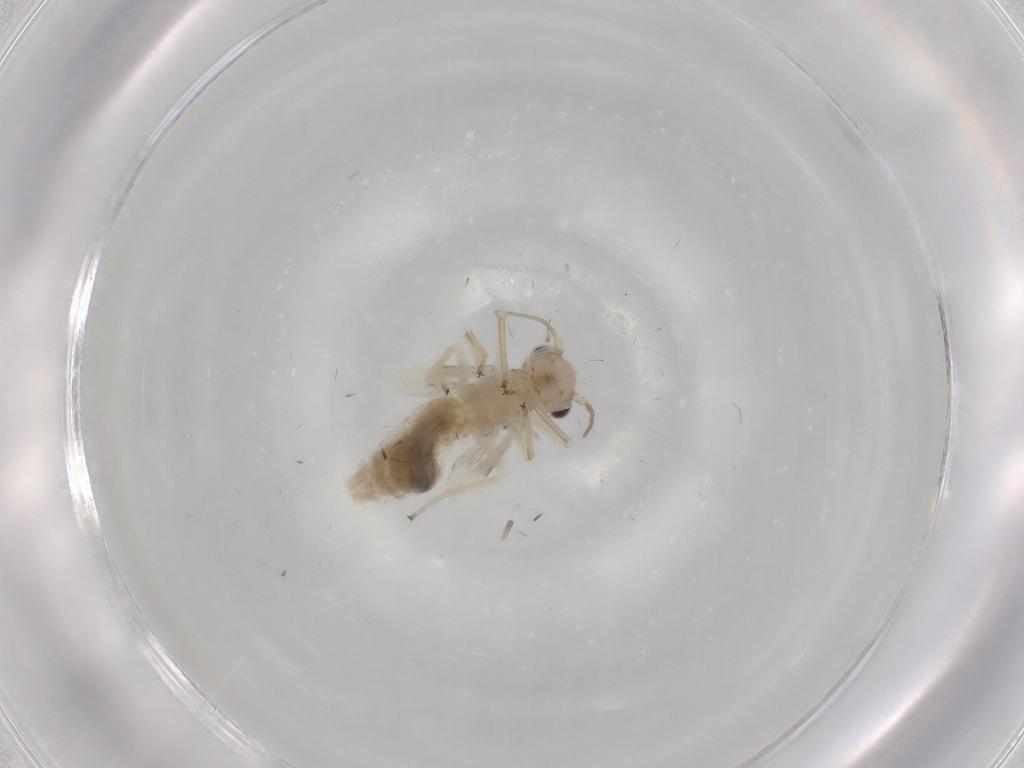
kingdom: Animalia
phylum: Arthropoda
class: Insecta
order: Psocodea
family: Caeciliusidae
